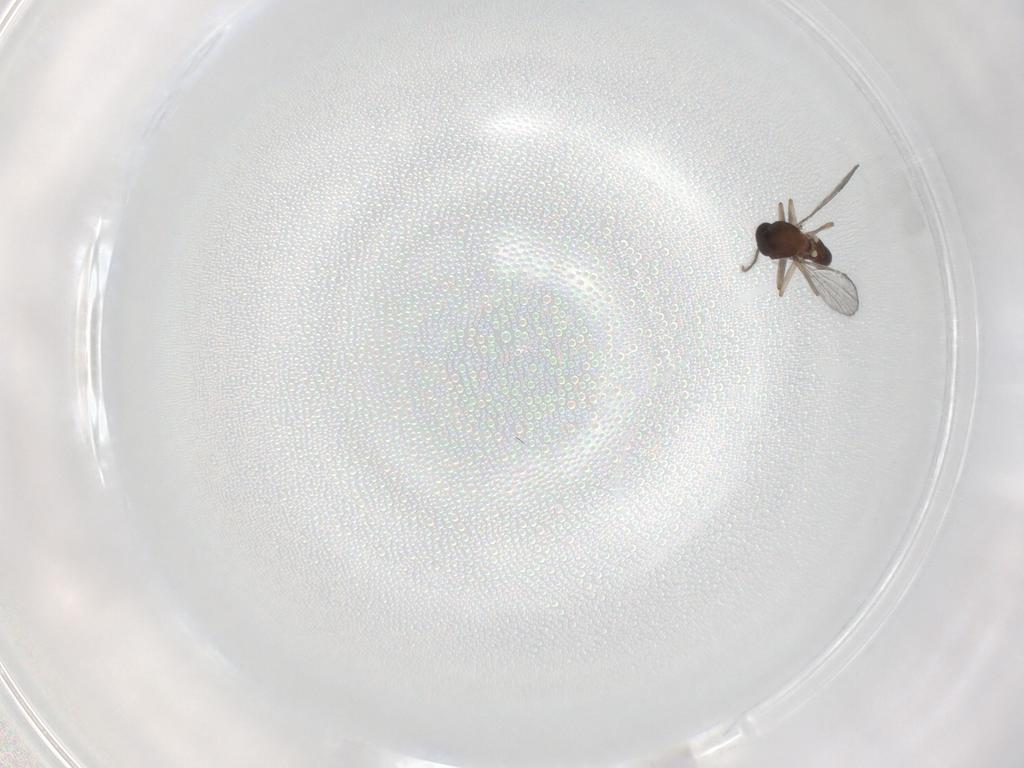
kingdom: Animalia
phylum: Arthropoda
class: Insecta
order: Diptera
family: Ceratopogonidae
